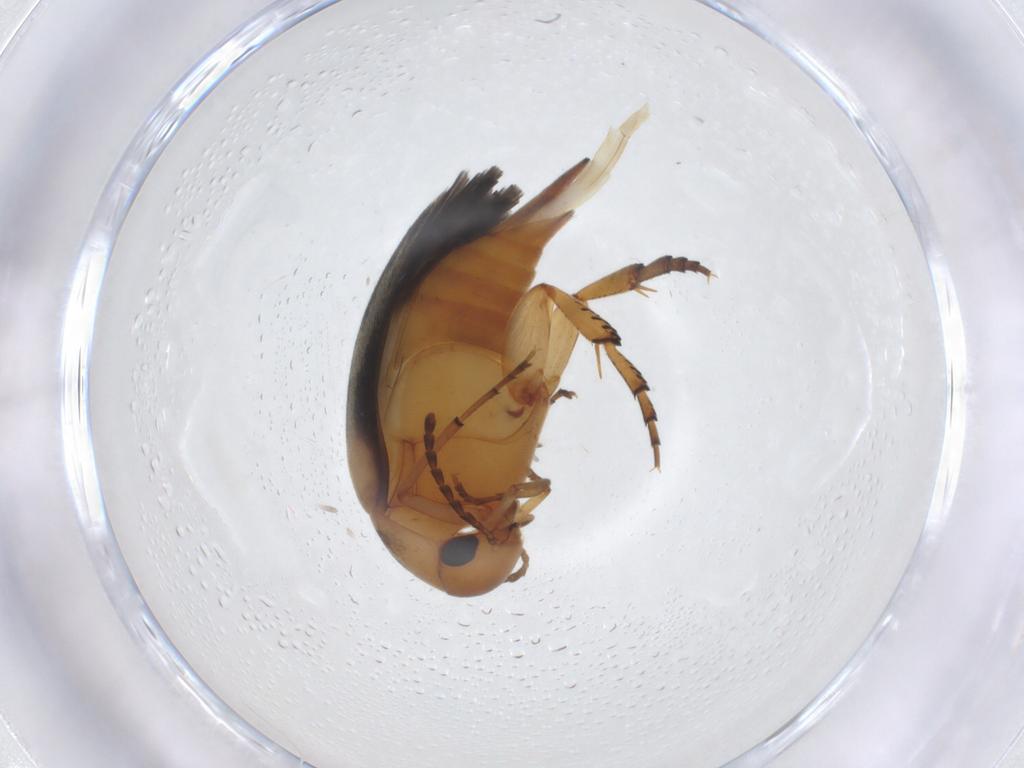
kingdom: Animalia
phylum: Arthropoda
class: Insecta
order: Coleoptera
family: Mordellidae
